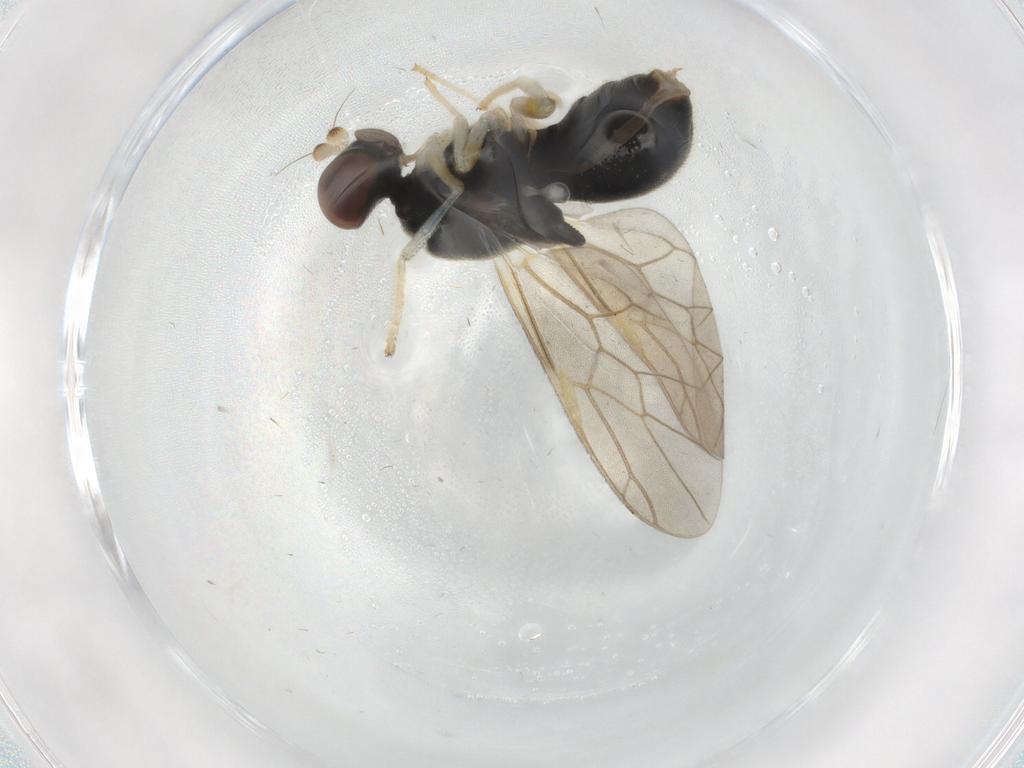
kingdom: Animalia
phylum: Arthropoda
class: Insecta
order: Diptera
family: Stratiomyidae
